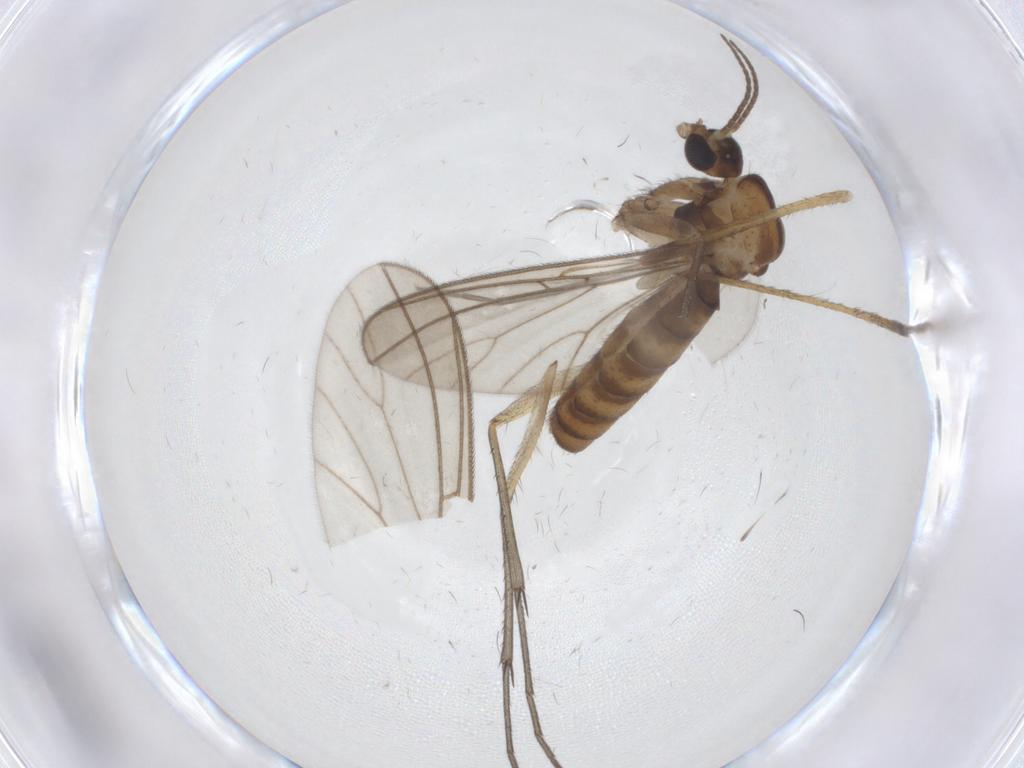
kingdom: Animalia
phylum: Arthropoda
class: Insecta
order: Diptera
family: Mycetophilidae
